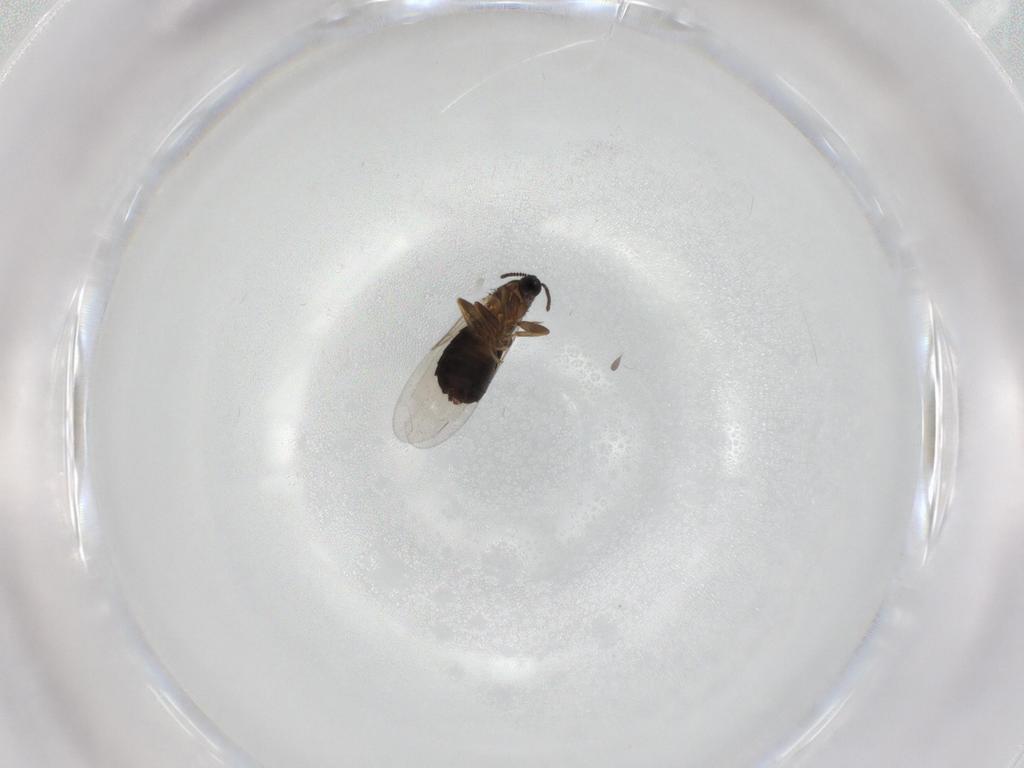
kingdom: Animalia
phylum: Arthropoda
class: Insecta
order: Diptera
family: Scatopsidae
